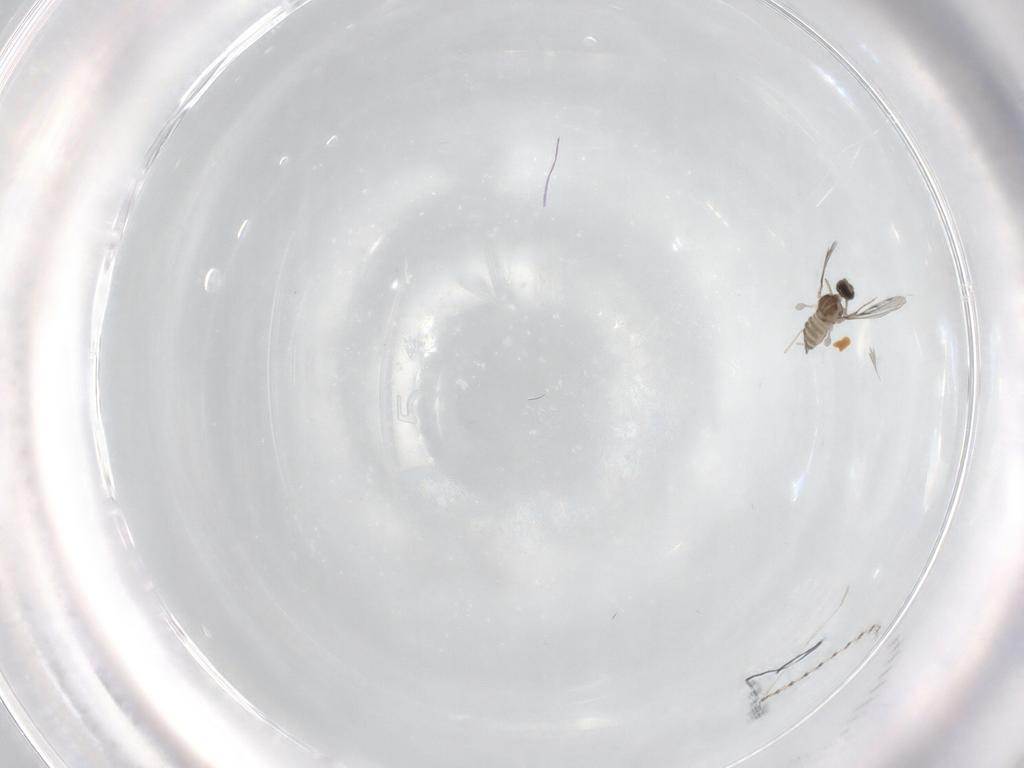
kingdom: Animalia
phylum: Arthropoda
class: Insecta
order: Diptera
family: Cecidomyiidae
